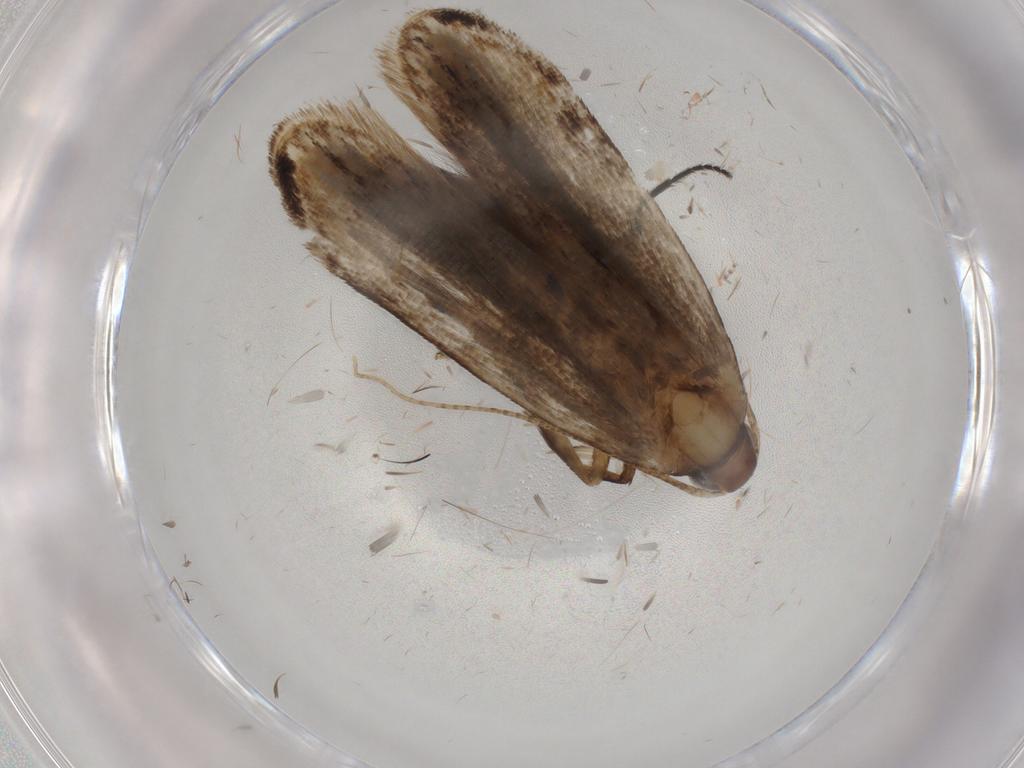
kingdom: Animalia
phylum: Arthropoda
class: Insecta
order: Lepidoptera
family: Gelechiidae
